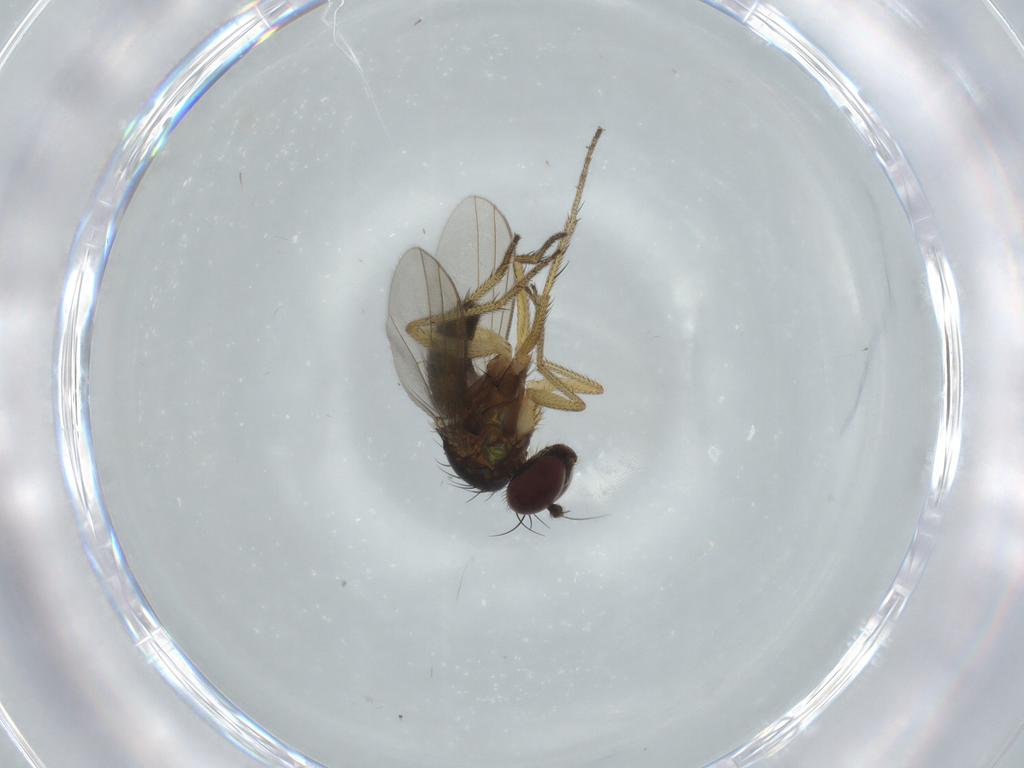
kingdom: Animalia
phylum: Arthropoda
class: Insecta
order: Diptera
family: Dolichopodidae
